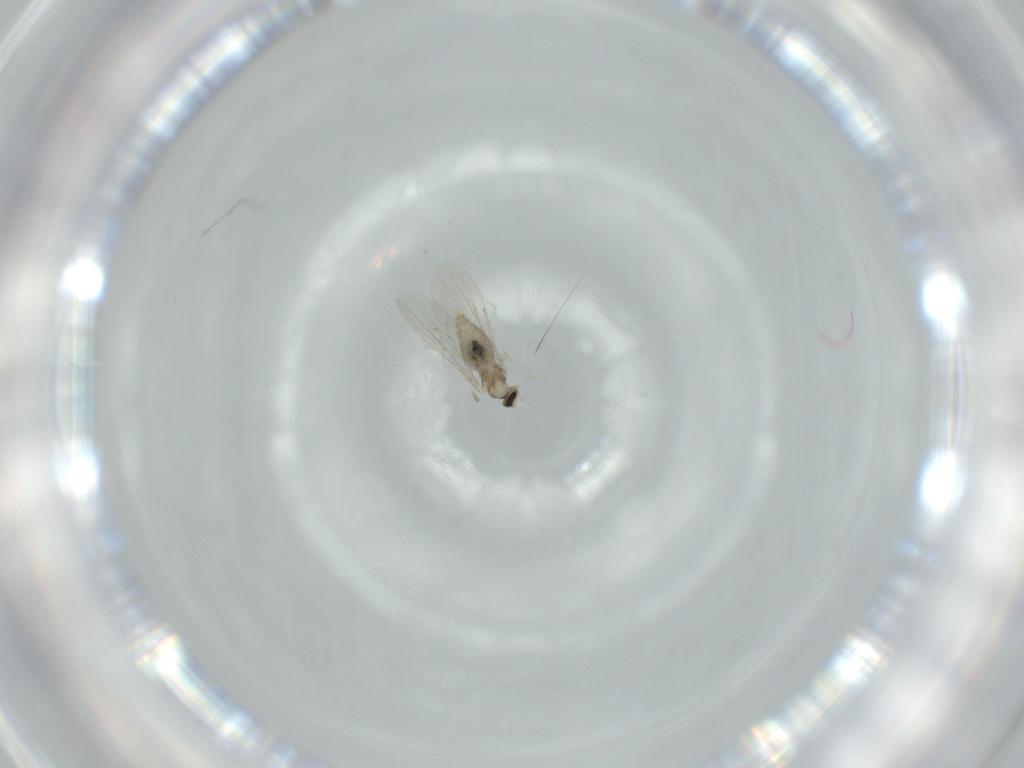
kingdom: Animalia
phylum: Arthropoda
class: Insecta
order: Diptera
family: Cecidomyiidae
